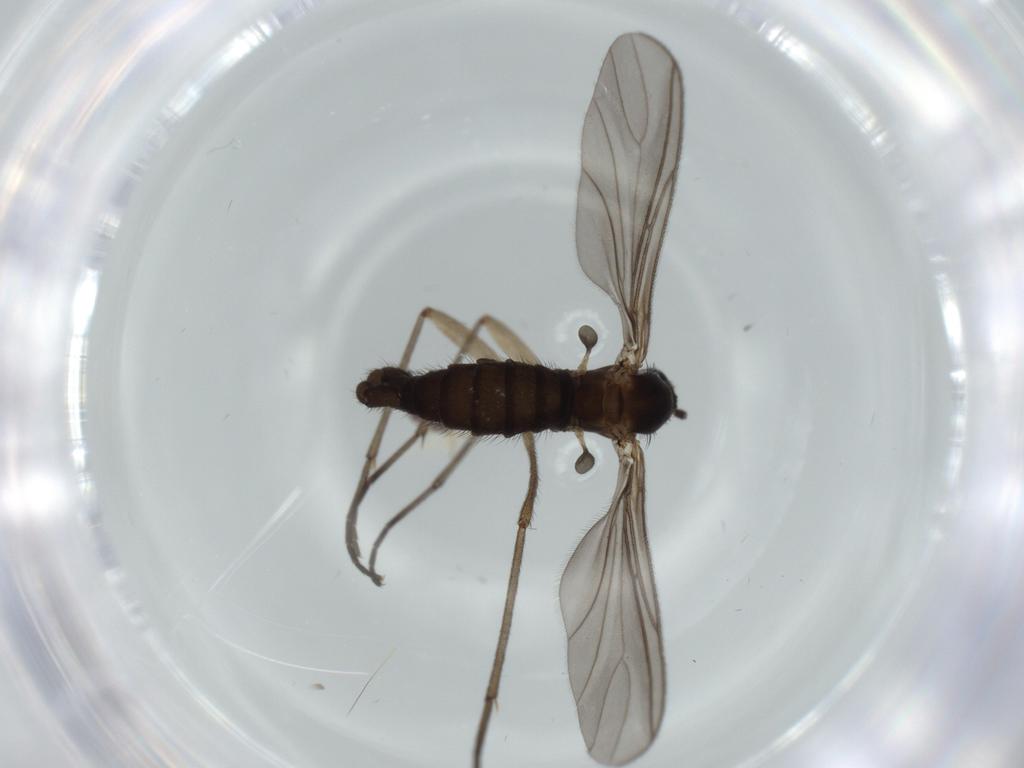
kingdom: Animalia
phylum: Arthropoda
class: Insecta
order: Diptera
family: Sciaridae
